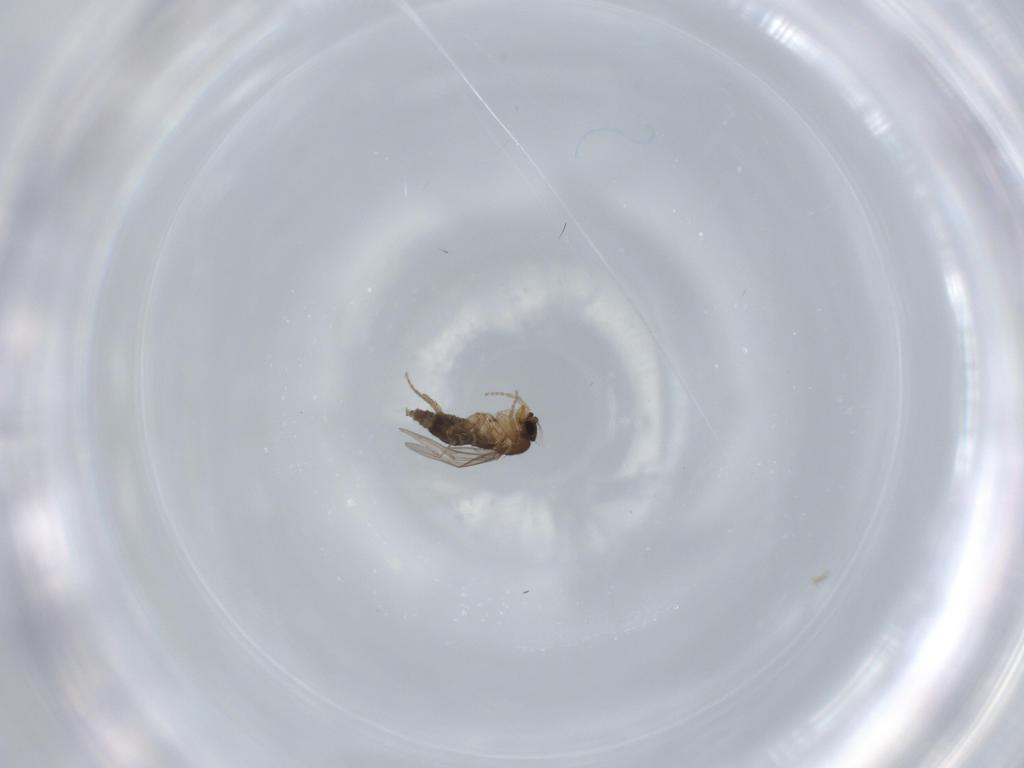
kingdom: Animalia
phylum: Arthropoda
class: Insecta
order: Diptera
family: Phoridae
